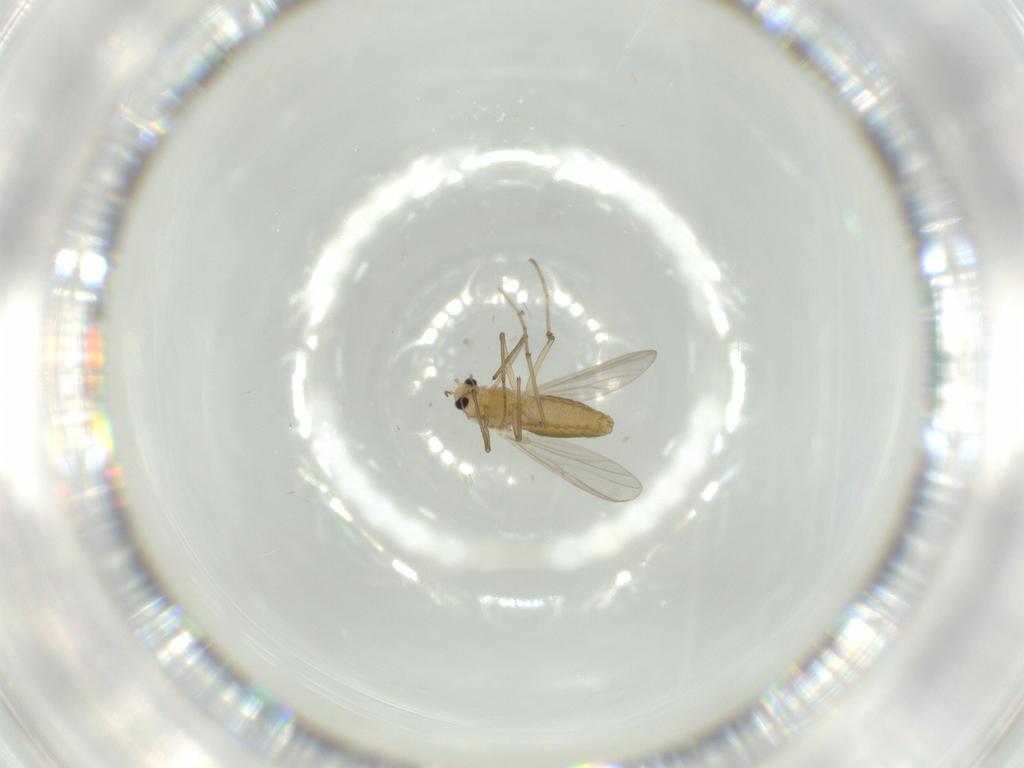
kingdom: Animalia
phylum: Arthropoda
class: Insecta
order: Diptera
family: Chironomidae
